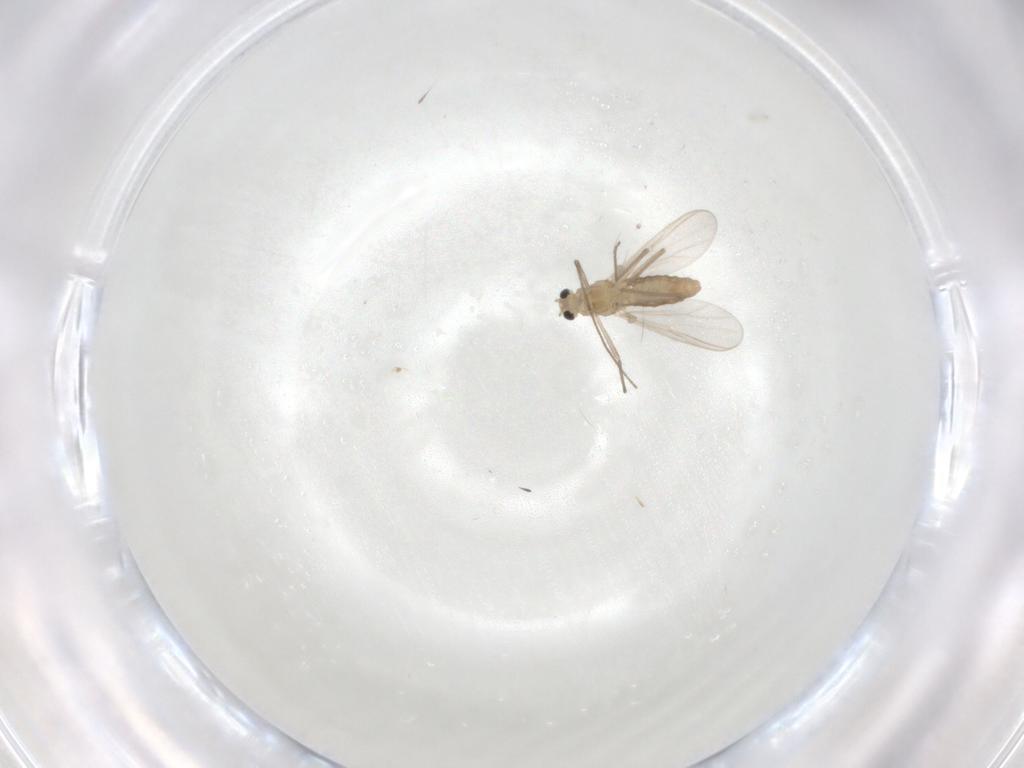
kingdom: Animalia
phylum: Arthropoda
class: Insecta
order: Diptera
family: Chironomidae
